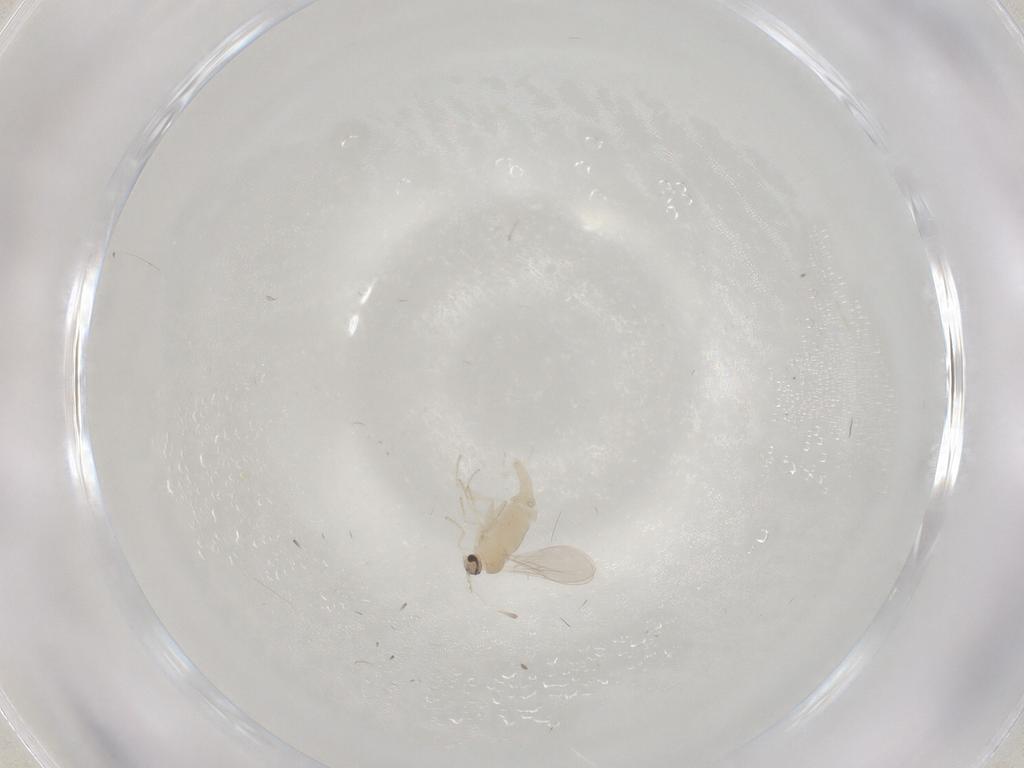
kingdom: Animalia
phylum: Arthropoda
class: Insecta
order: Diptera
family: Cecidomyiidae
